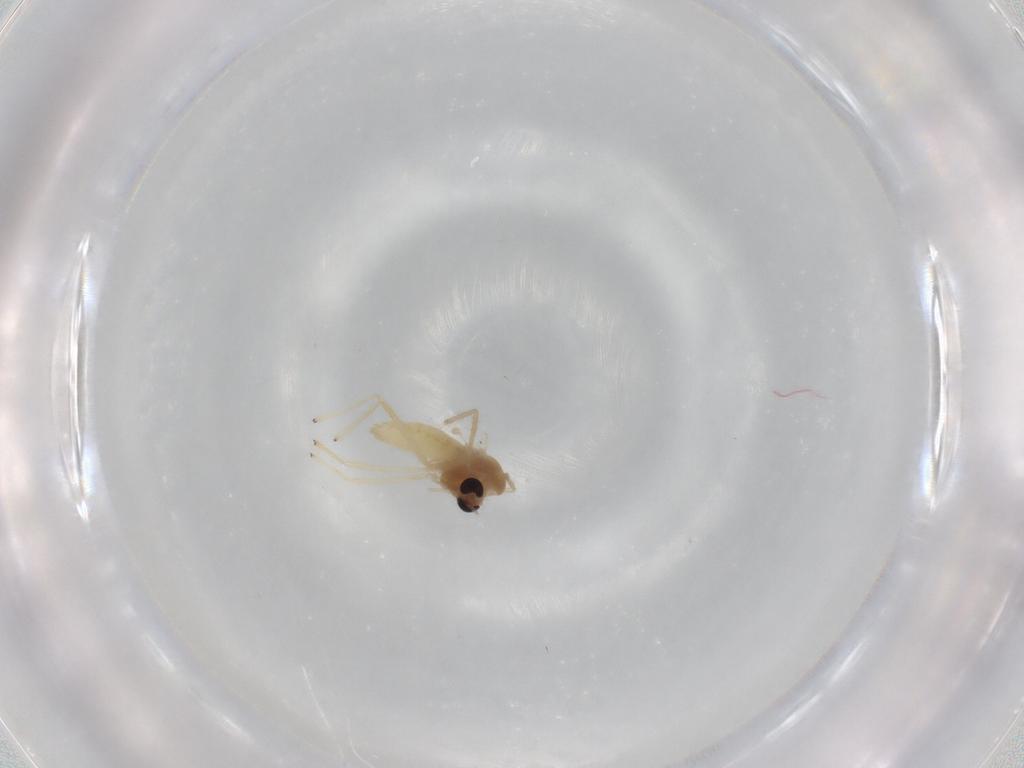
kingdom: Animalia
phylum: Arthropoda
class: Insecta
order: Diptera
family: Chironomidae
